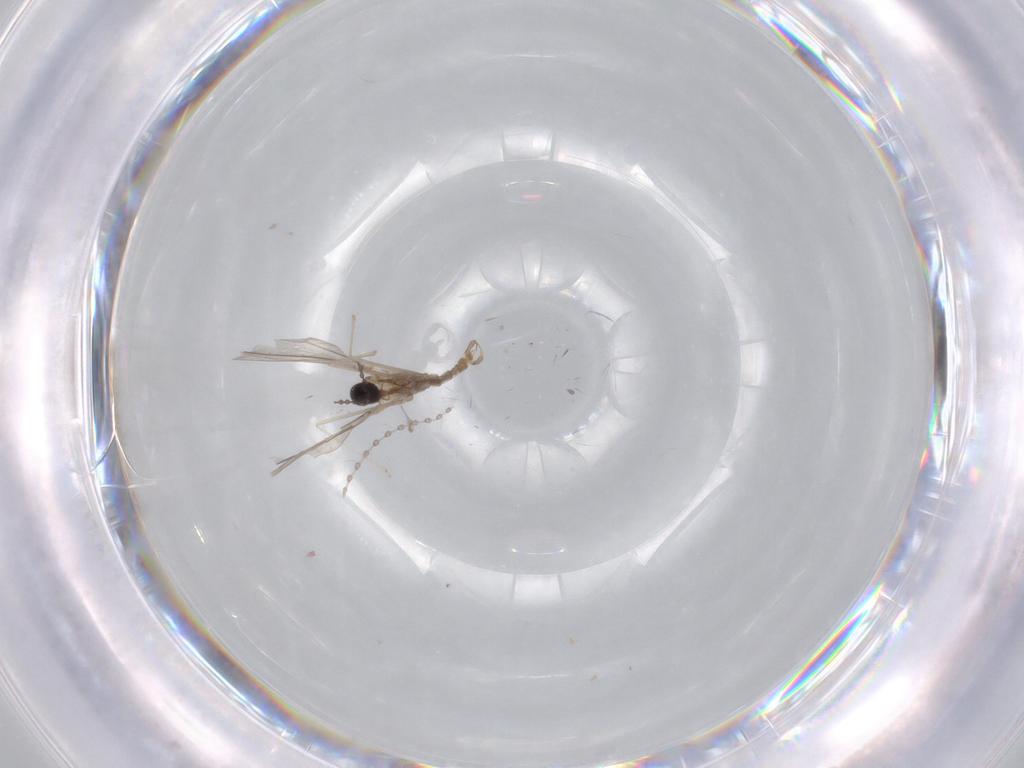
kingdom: Animalia
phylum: Arthropoda
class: Insecta
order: Diptera
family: Cecidomyiidae
